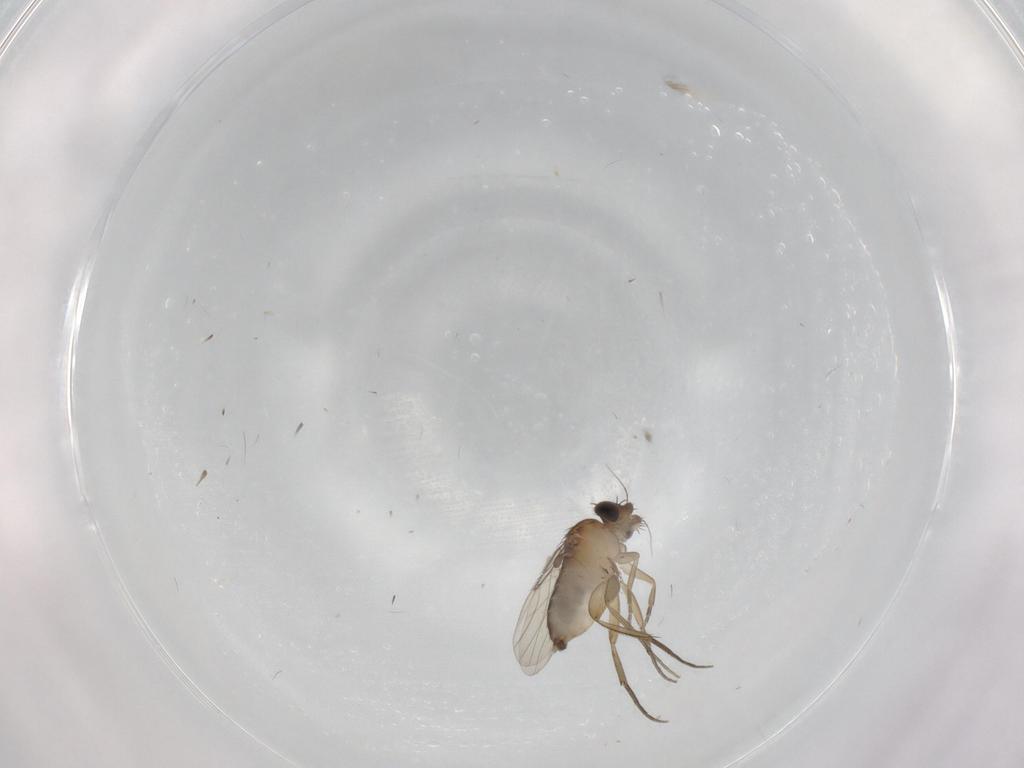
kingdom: Animalia
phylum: Arthropoda
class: Insecta
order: Diptera
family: Phoridae
